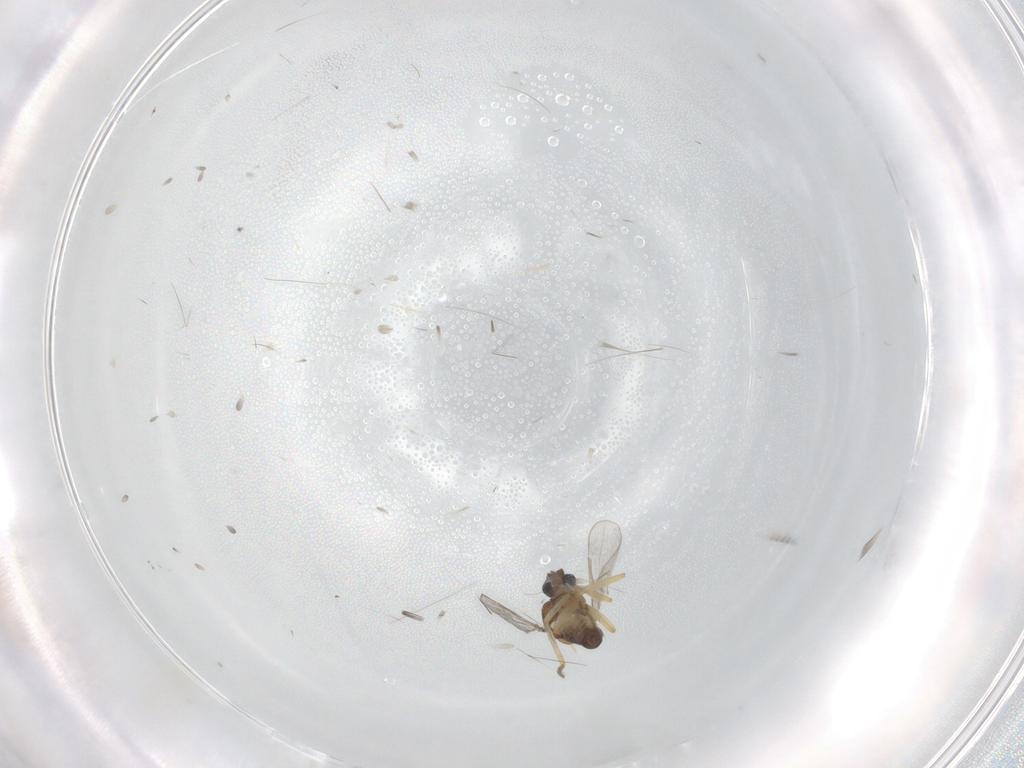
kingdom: Animalia
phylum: Arthropoda
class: Insecta
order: Diptera
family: Ceratopogonidae
